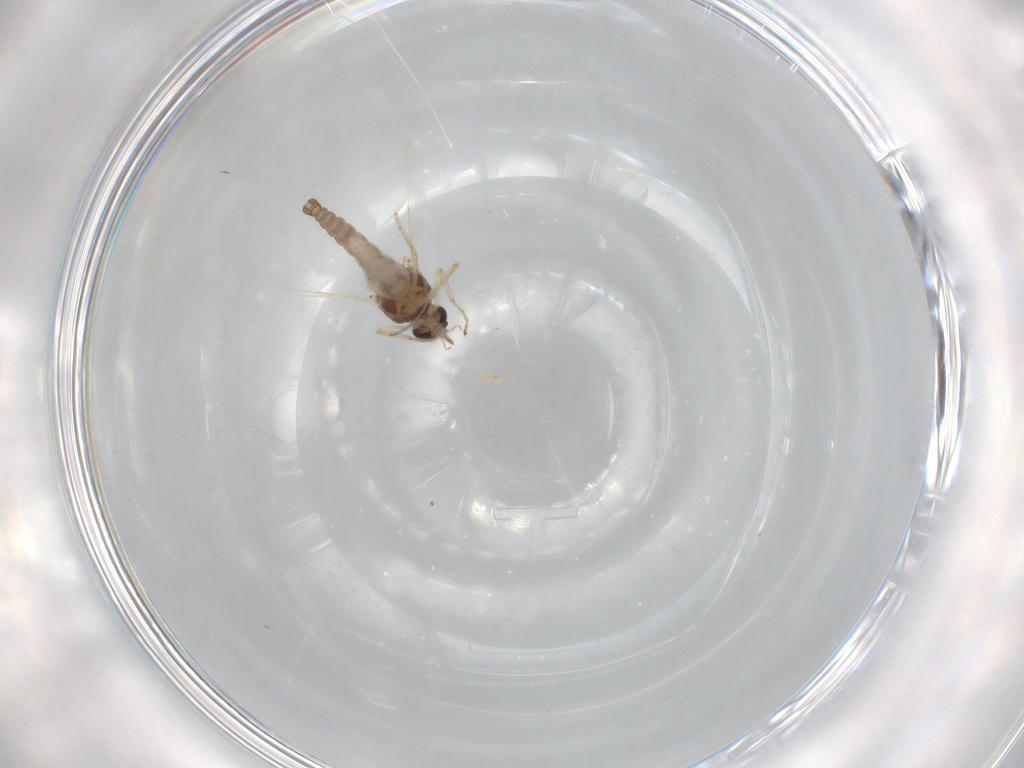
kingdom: Animalia
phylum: Arthropoda
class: Insecta
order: Diptera
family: Ceratopogonidae
